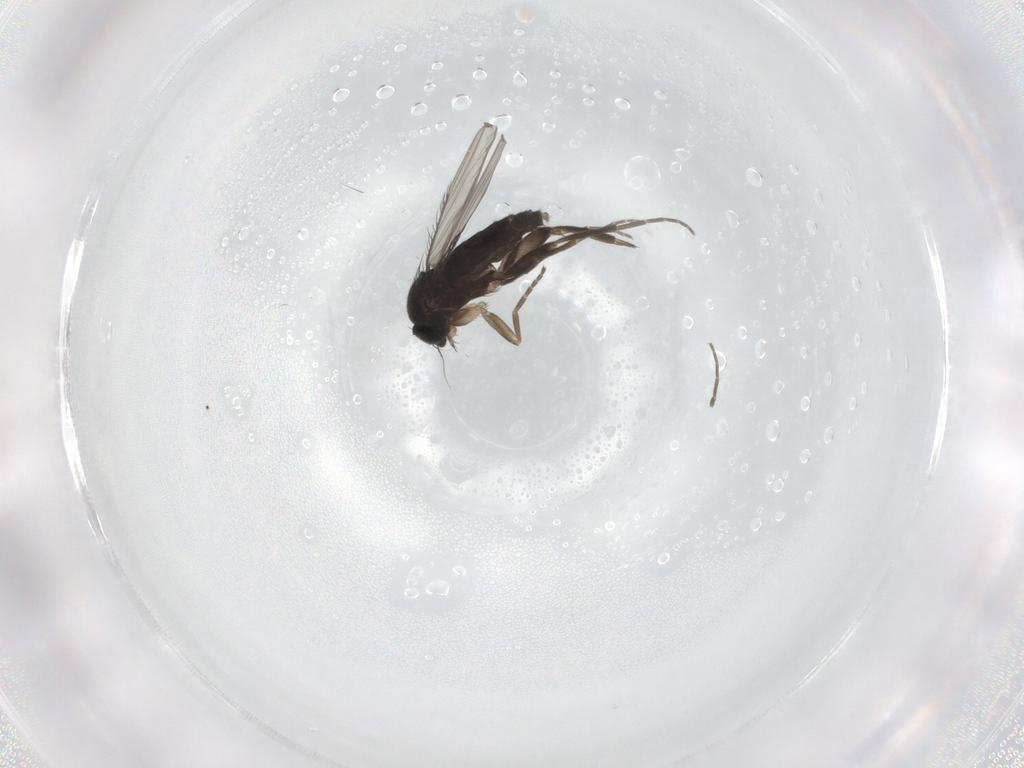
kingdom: Animalia
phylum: Arthropoda
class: Insecta
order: Diptera
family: Phoridae
